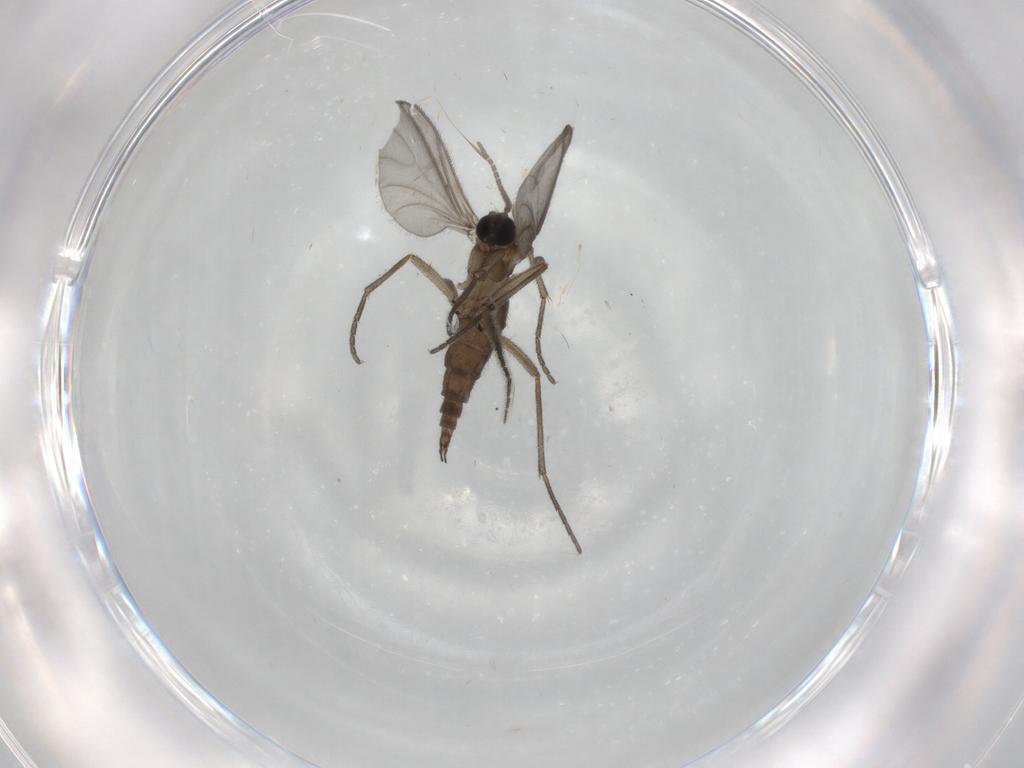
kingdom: Animalia
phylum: Arthropoda
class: Insecta
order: Diptera
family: Sciaridae
